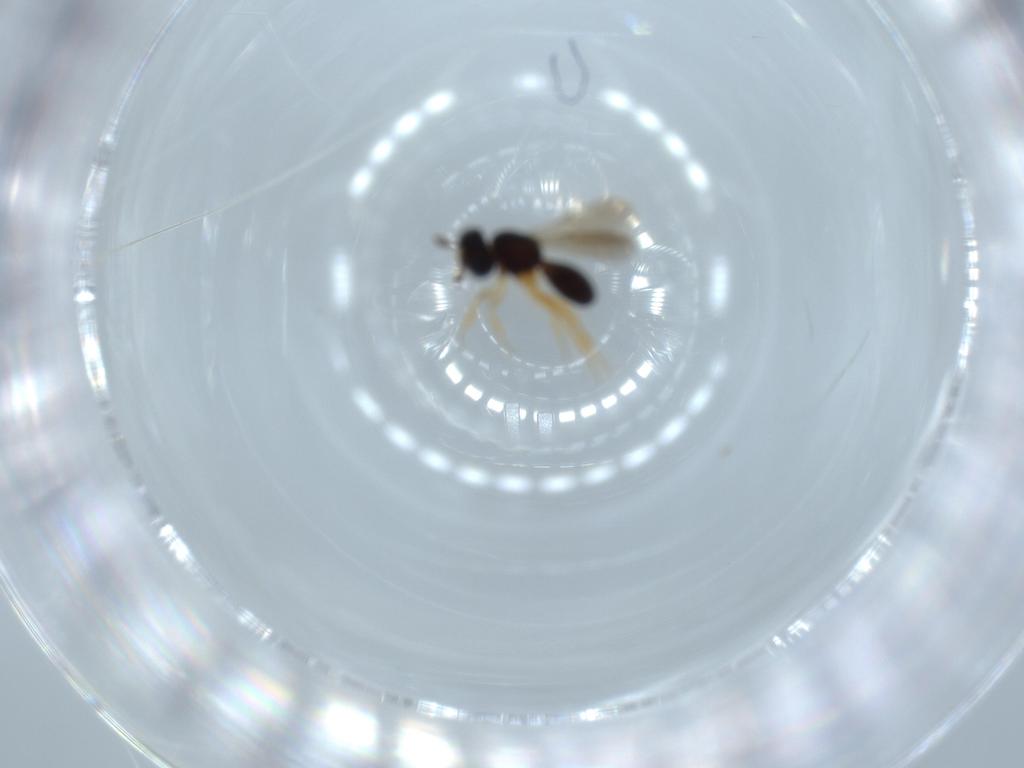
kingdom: Animalia
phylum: Arthropoda
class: Insecta
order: Hymenoptera
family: Scelionidae
